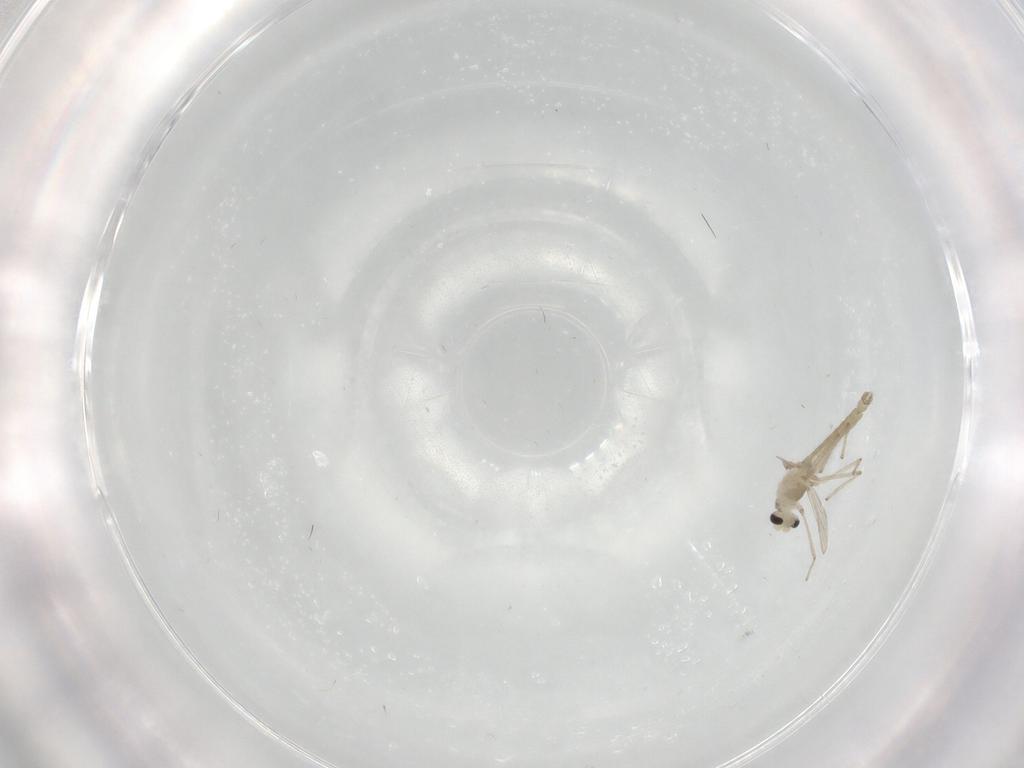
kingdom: Animalia
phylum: Arthropoda
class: Insecta
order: Diptera
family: Chironomidae
